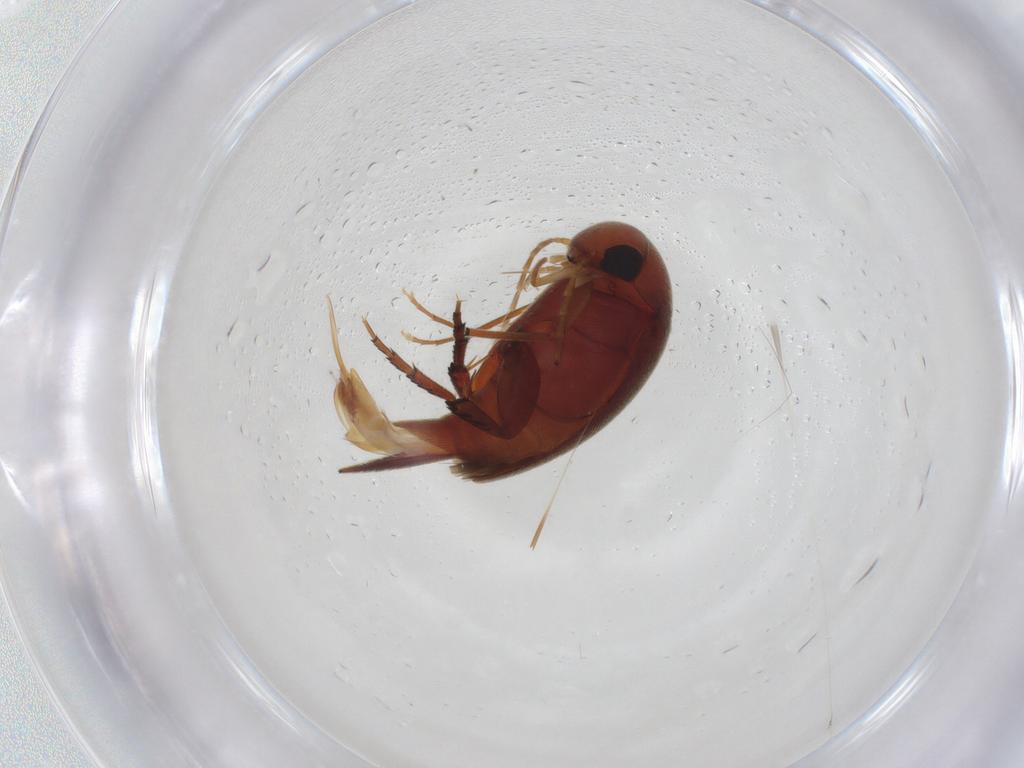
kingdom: Animalia
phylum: Arthropoda
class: Insecta
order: Coleoptera
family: Mordellidae
